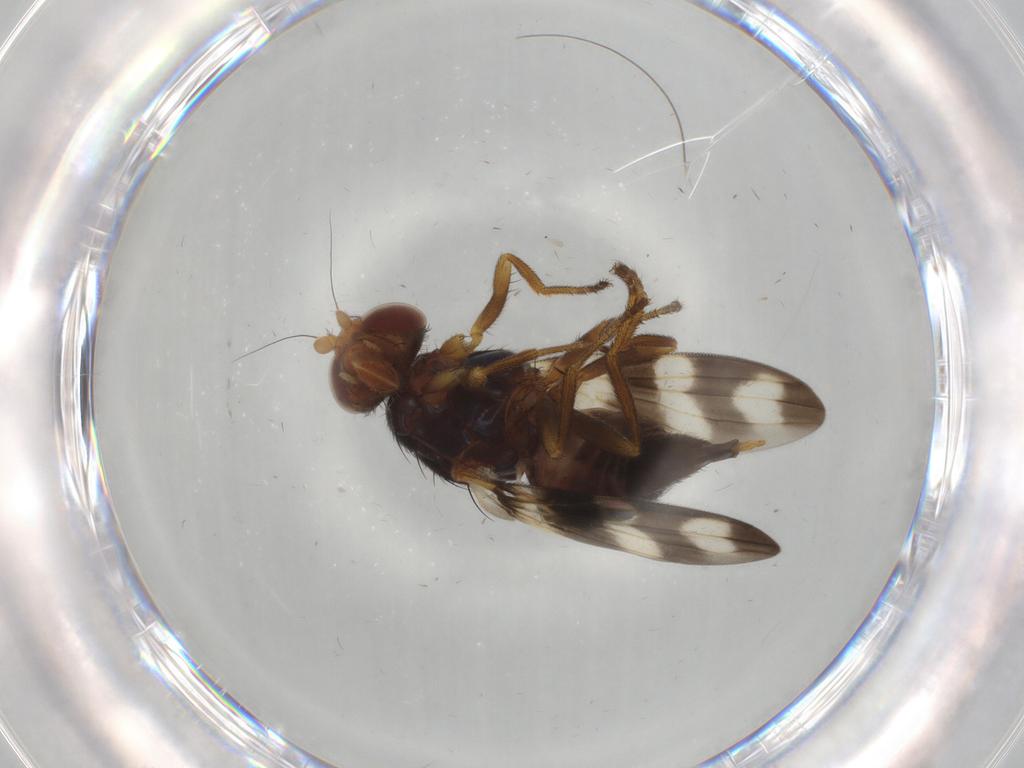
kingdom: Animalia
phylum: Arthropoda
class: Insecta
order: Diptera
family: Ulidiidae
